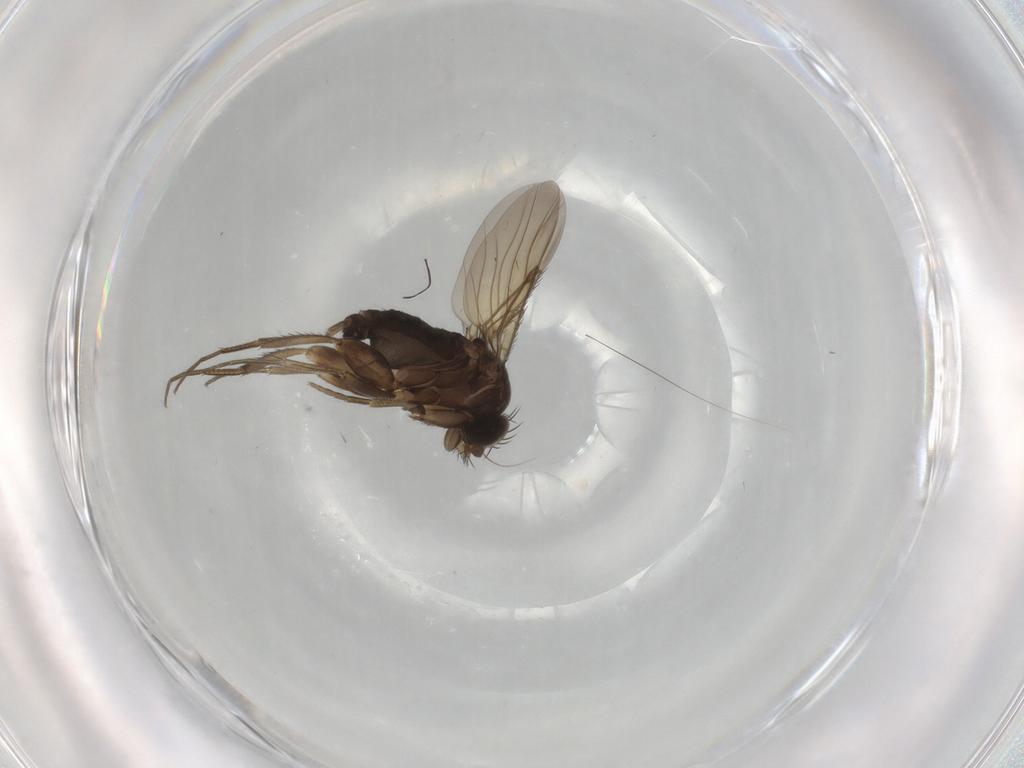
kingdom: Animalia
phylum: Arthropoda
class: Insecta
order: Diptera
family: Phoridae
